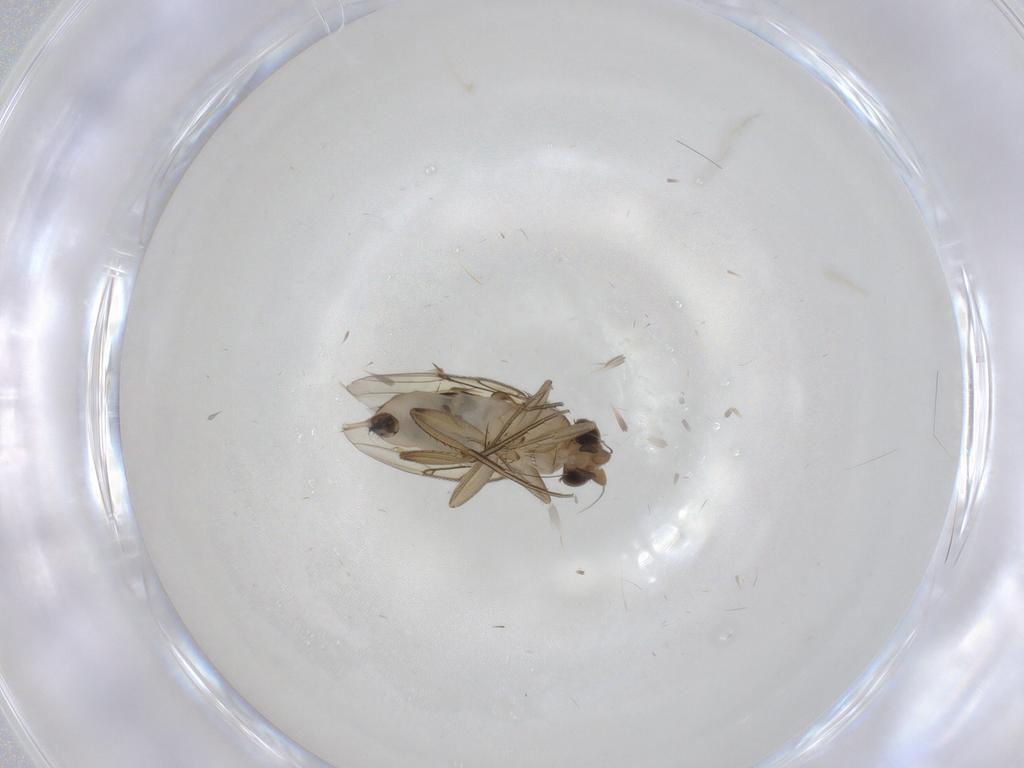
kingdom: Animalia
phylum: Arthropoda
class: Insecta
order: Diptera
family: Phoridae
